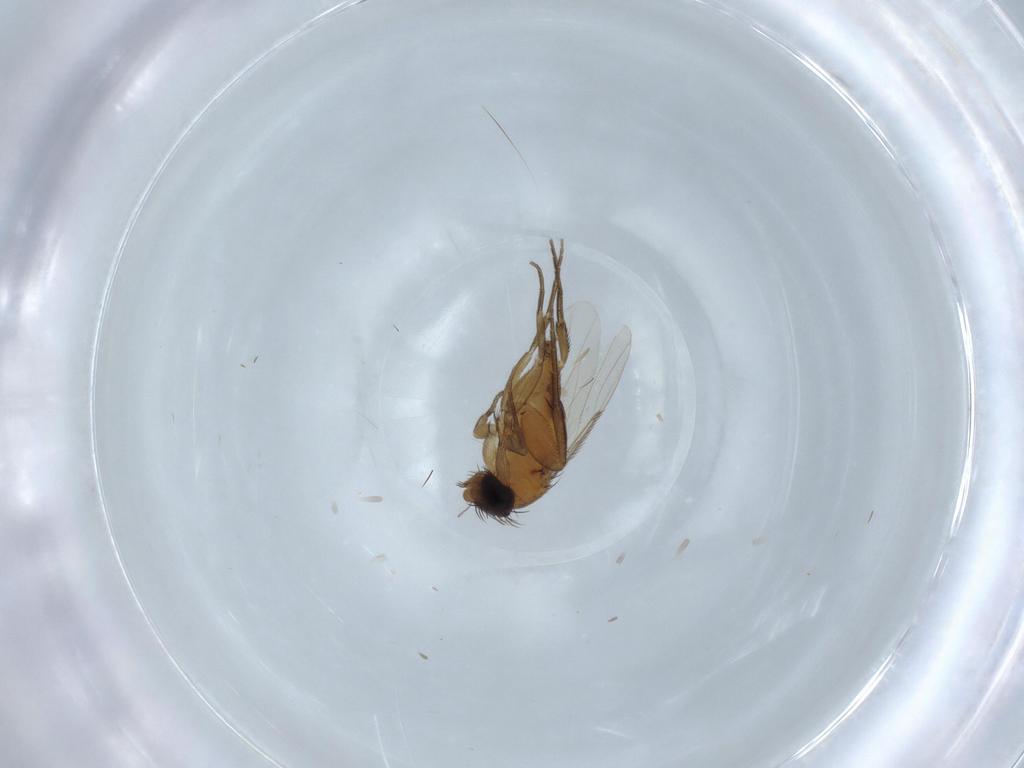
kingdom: Animalia
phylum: Arthropoda
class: Insecta
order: Diptera
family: Phoridae
